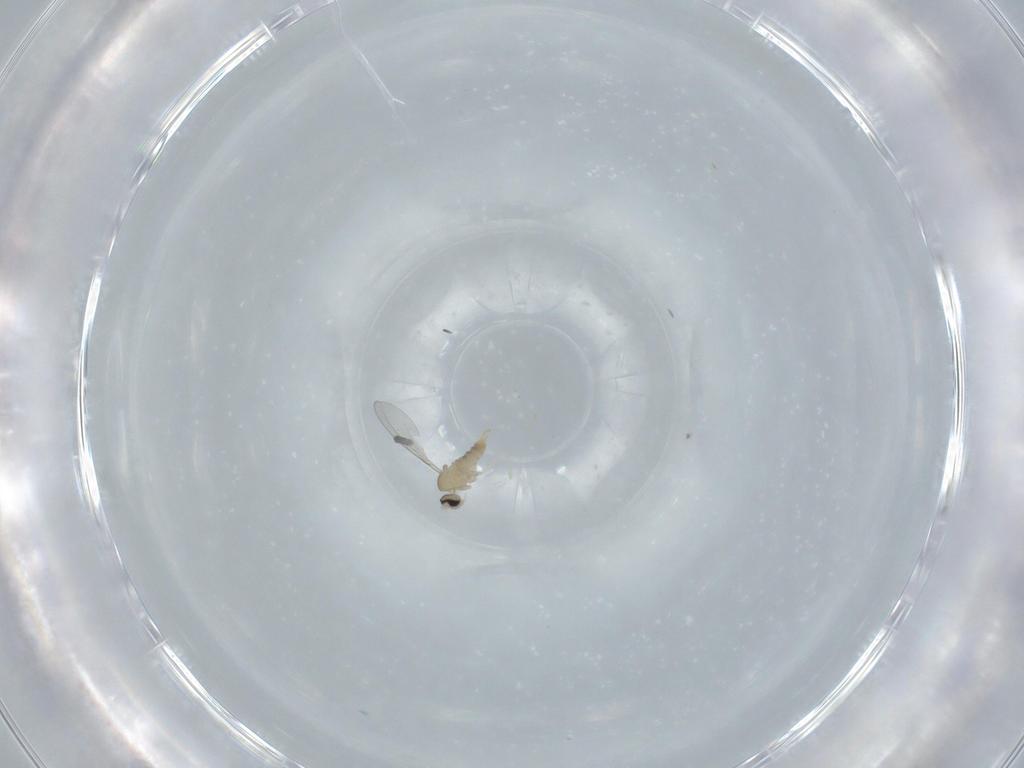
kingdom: Animalia
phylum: Arthropoda
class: Insecta
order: Diptera
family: Cecidomyiidae
